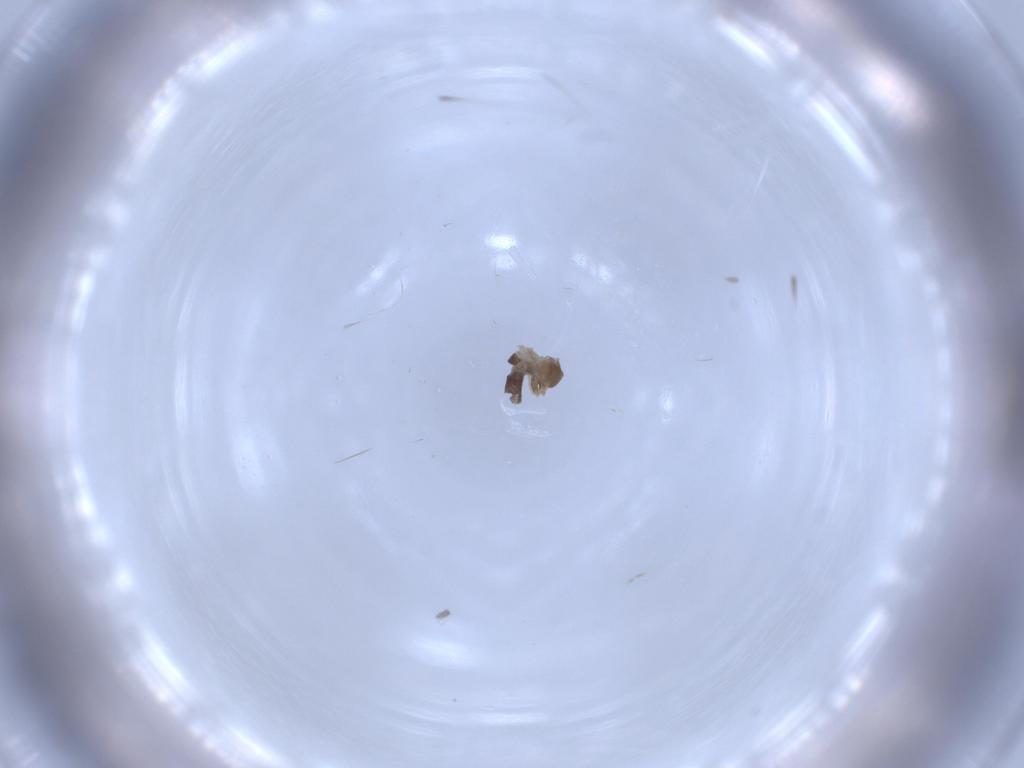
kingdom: Animalia
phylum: Arthropoda
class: Insecta
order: Diptera
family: Chironomidae
